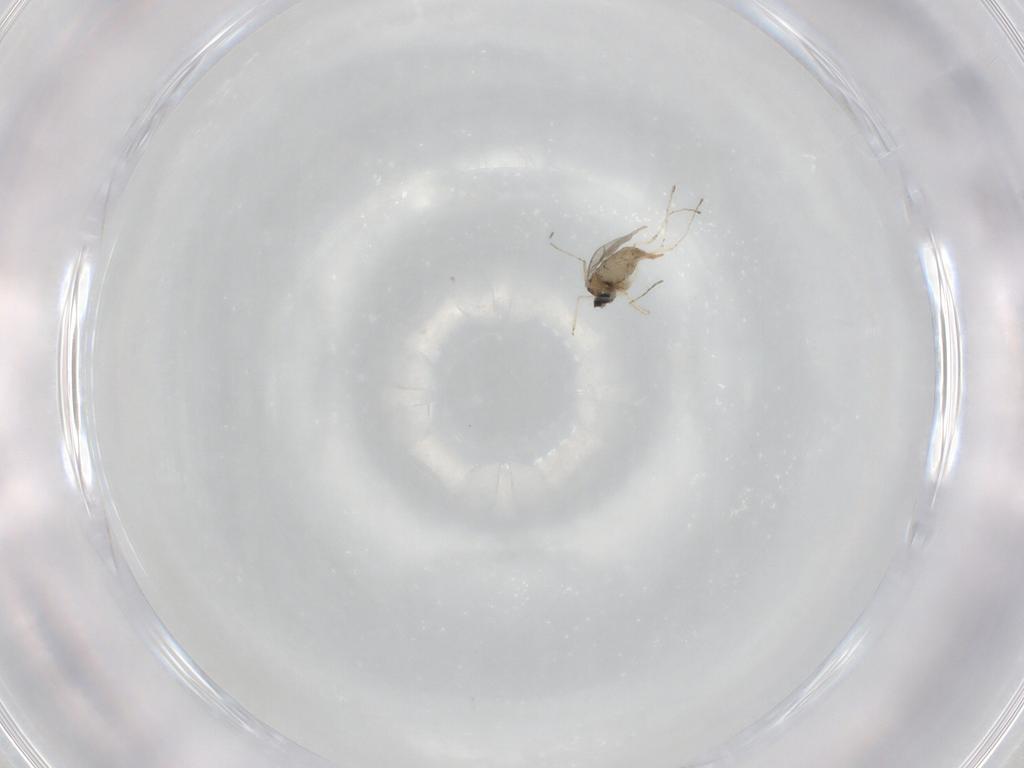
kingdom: Animalia
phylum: Arthropoda
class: Insecta
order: Diptera
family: Cecidomyiidae
